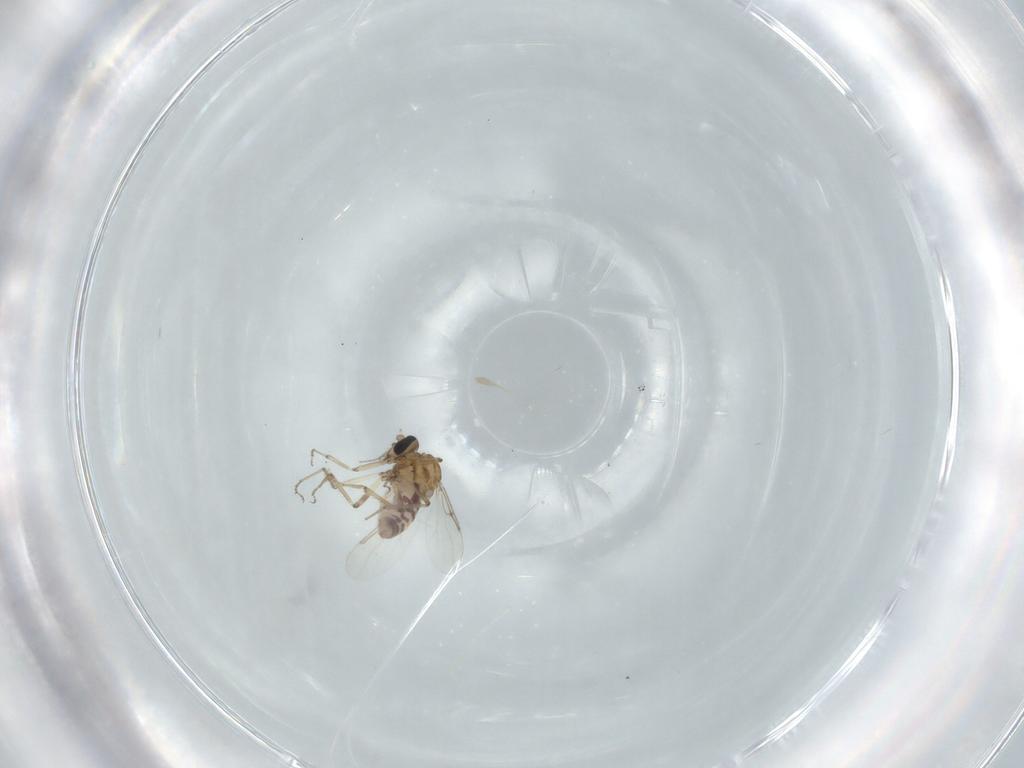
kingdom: Animalia
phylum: Arthropoda
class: Insecta
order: Diptera
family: Ceratopogonidae
